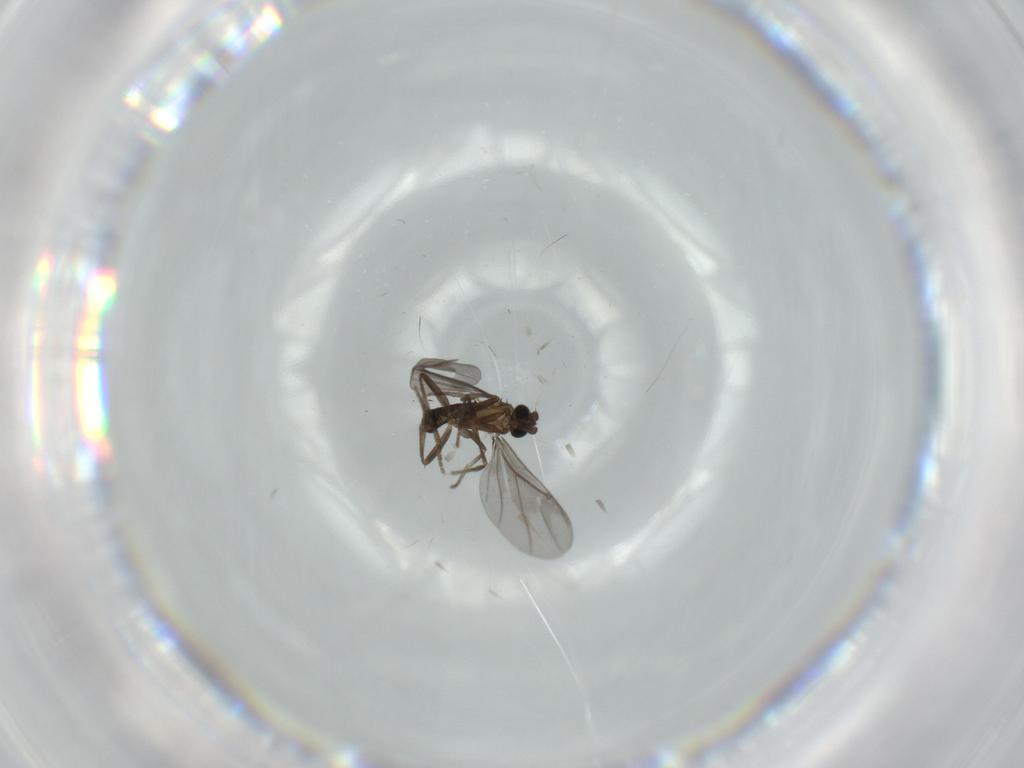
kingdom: Animalia
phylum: Arthropoda
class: Insecta
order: Diptera
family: Phoridae
